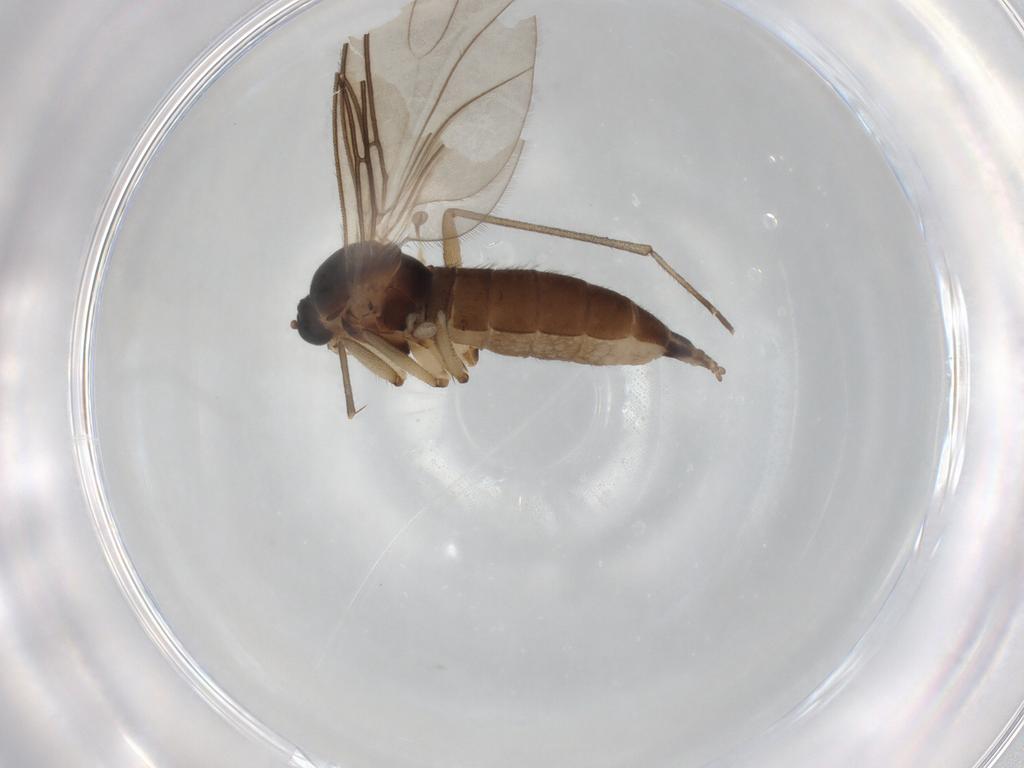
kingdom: Animalia
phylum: Arthropoda
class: Insecta
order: Diptera
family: Sciaridae
